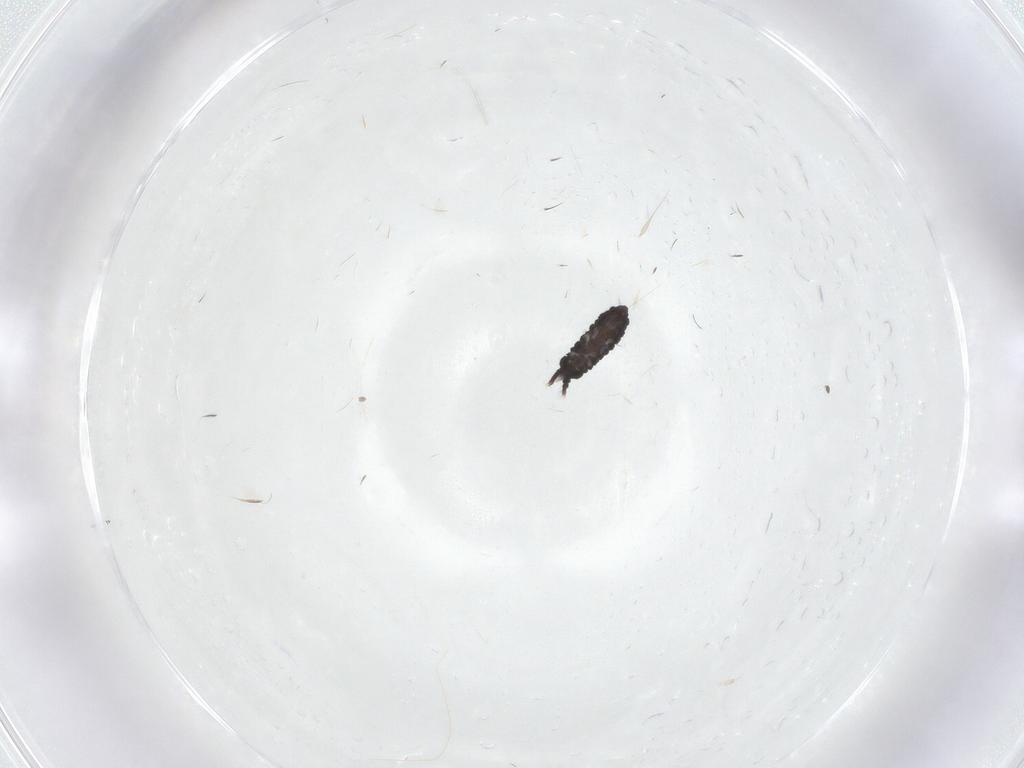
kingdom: Animalia
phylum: Arthropoda
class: Collembola
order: Poduromorpha
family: Neanuridae
